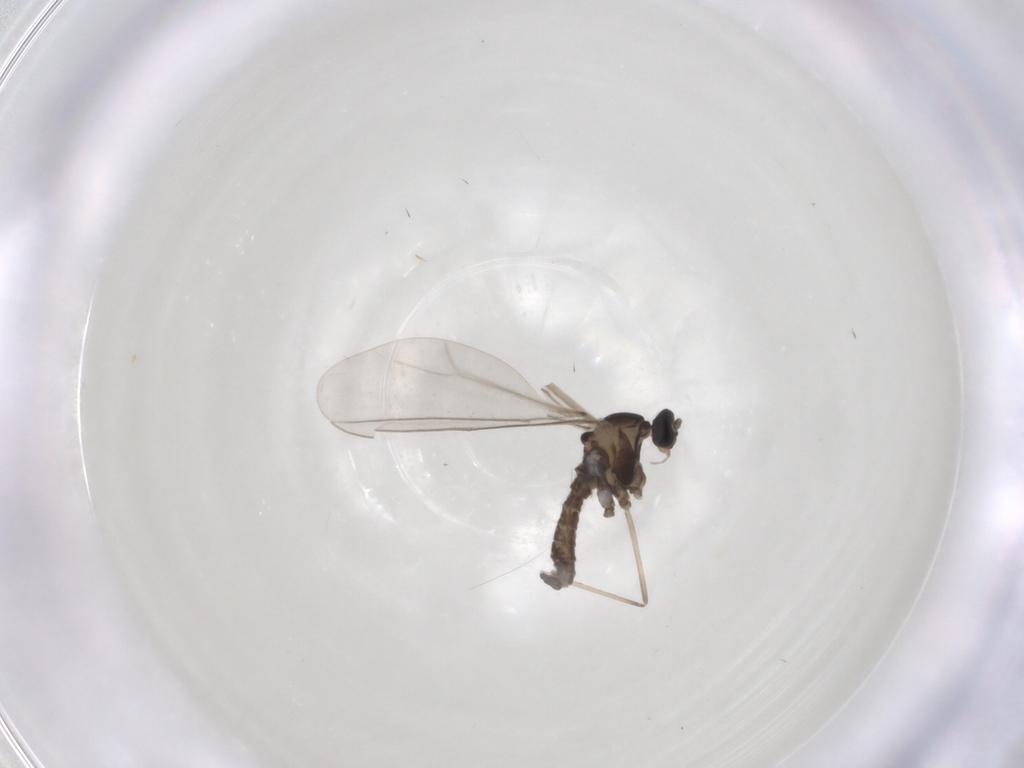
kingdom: Animalia
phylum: Arthropoda
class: Insecta
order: Diptera
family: Cecidomyiidae
